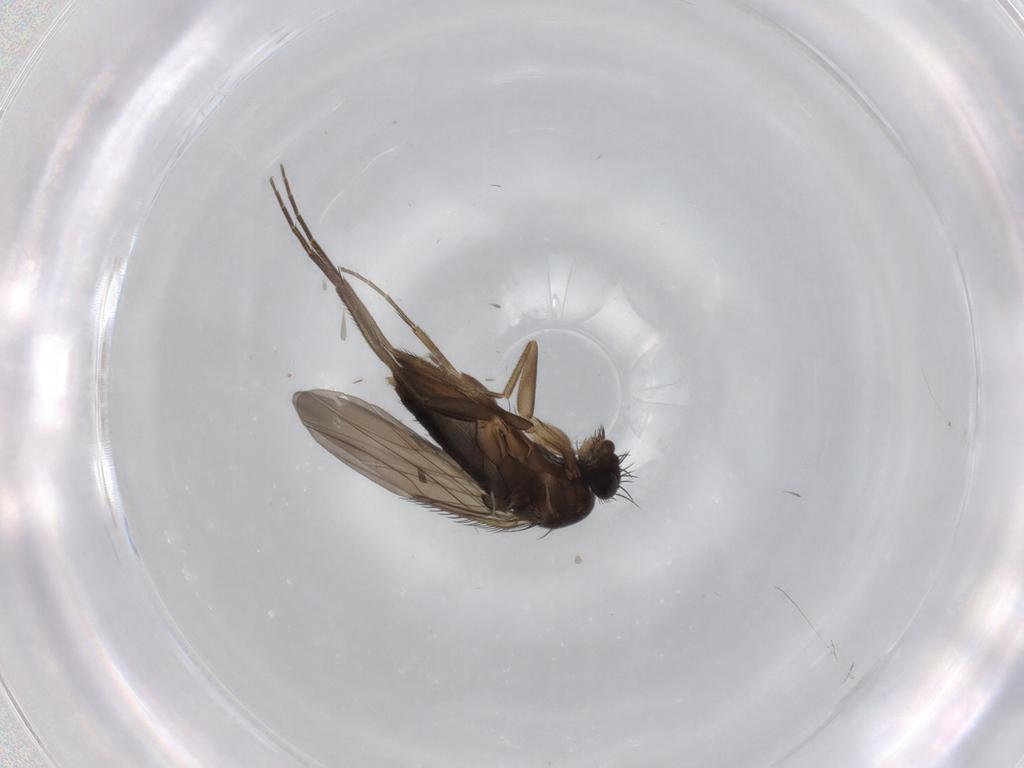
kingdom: Animalia
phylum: Arthropoda
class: Insecta
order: Diptera
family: Phoridae
